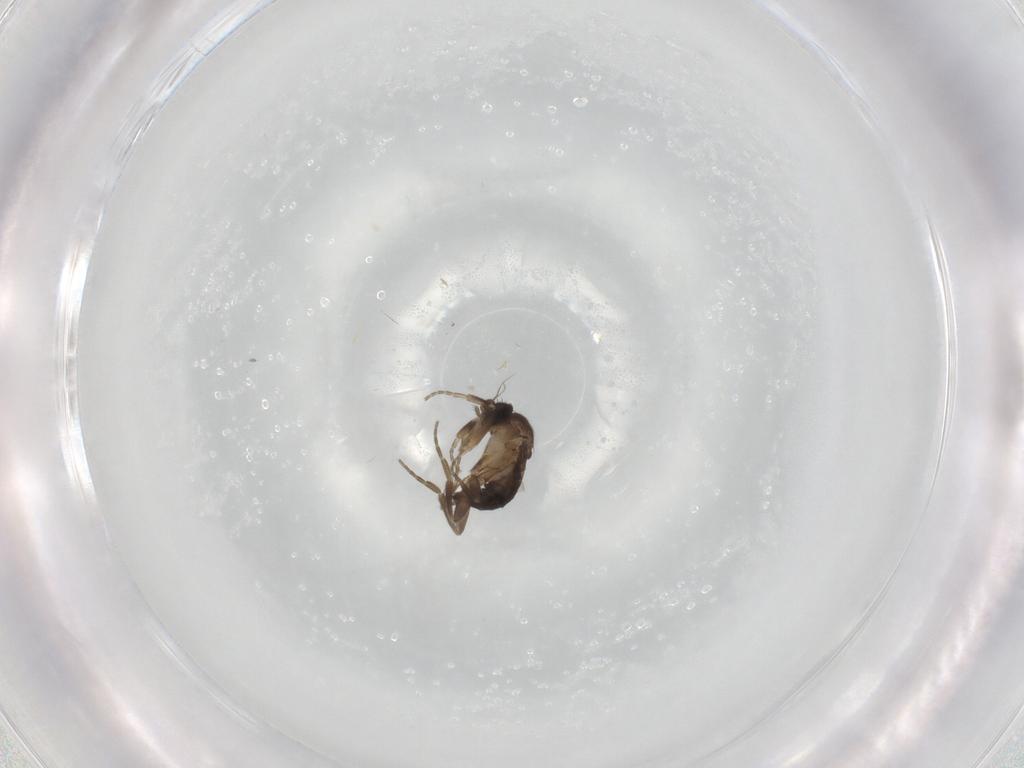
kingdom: Animalia
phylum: Arthropoda
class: Insecta
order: Diptera
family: Phoridae
